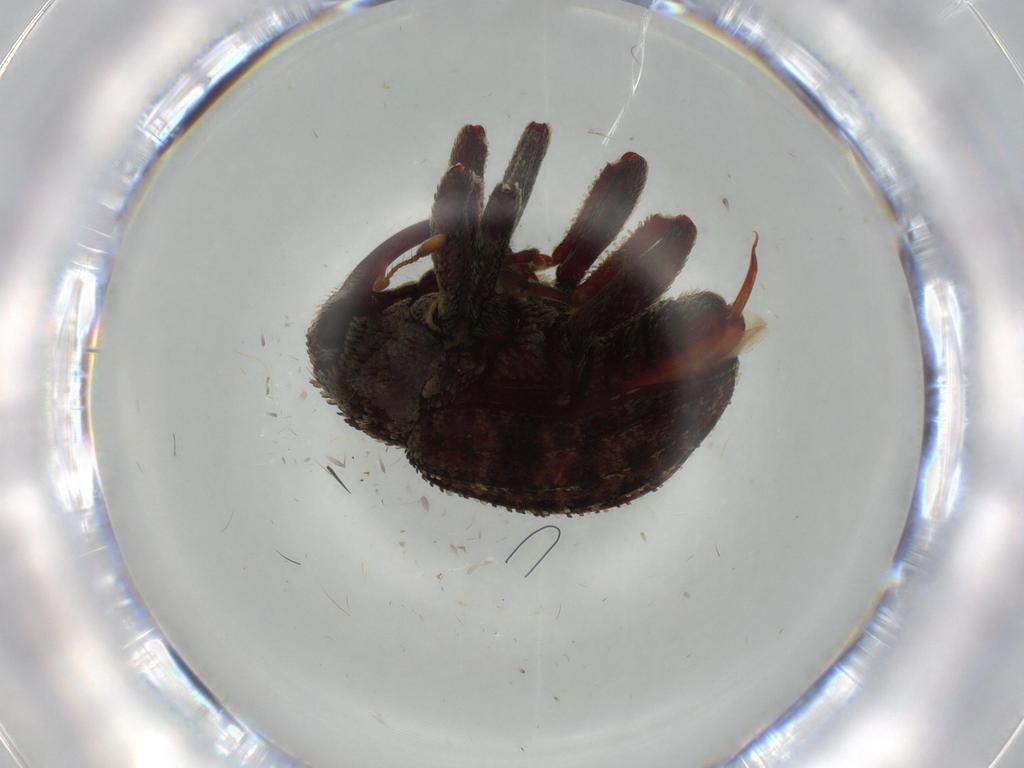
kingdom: Animalia
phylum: Arthropoda
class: Insecta
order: Coleoptera
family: Curculionidae
